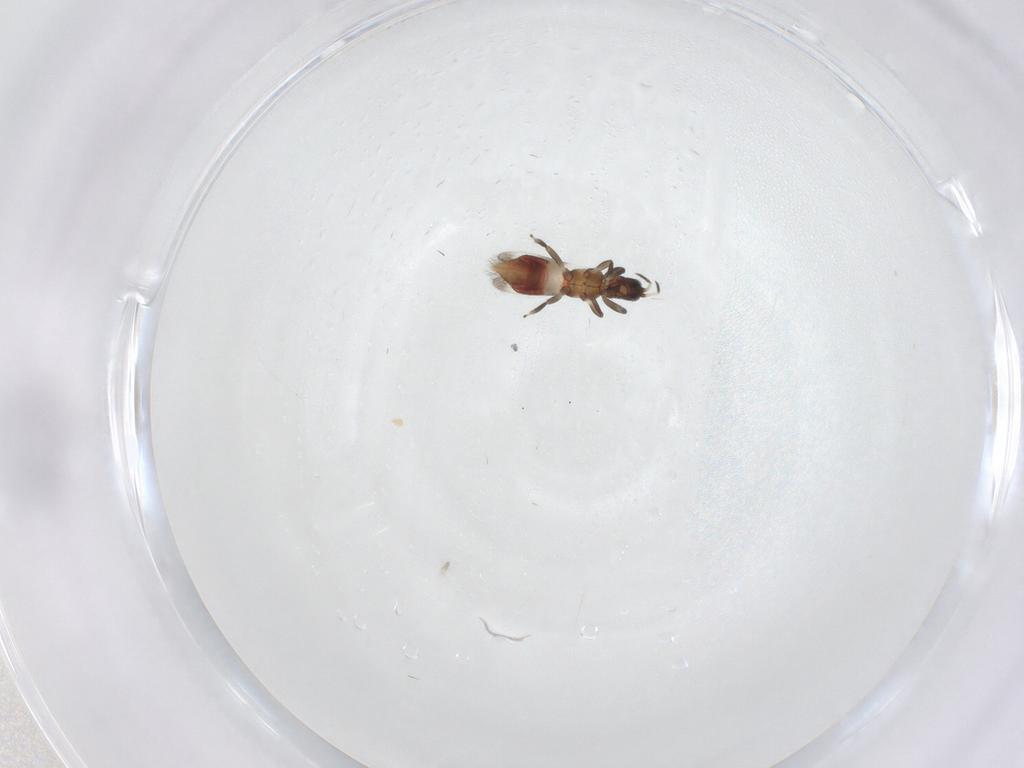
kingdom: Animalia
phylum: Arthropoda
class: Insecta
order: Thysanoptera
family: Aeolothripidae
